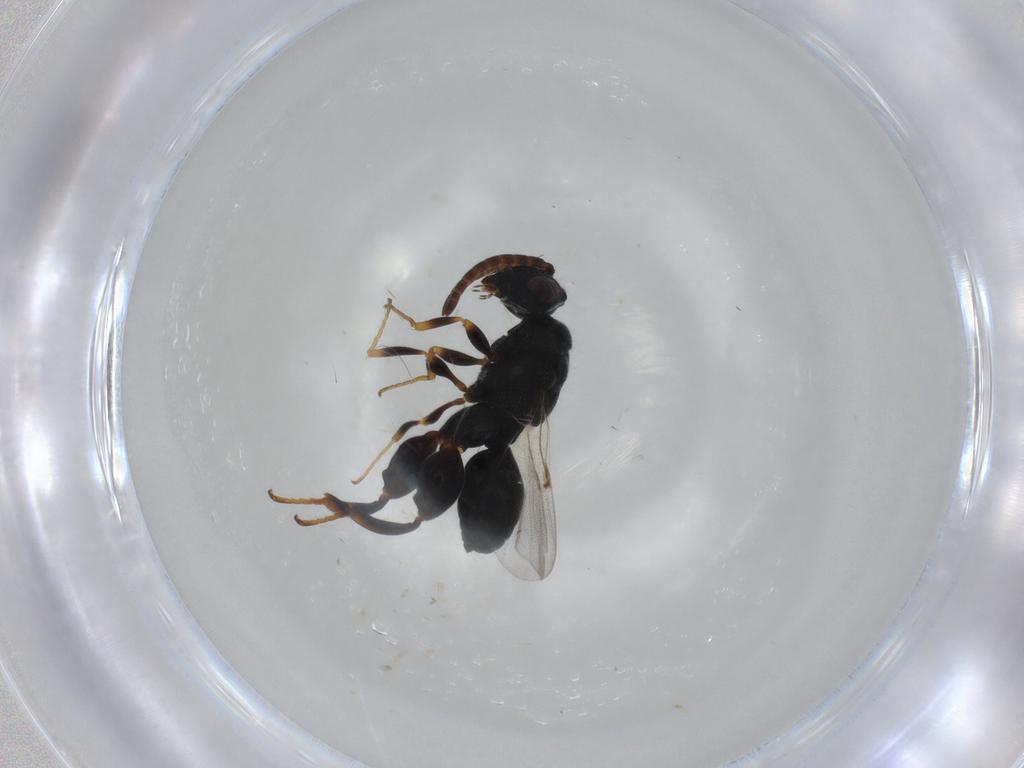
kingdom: Animalia
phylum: Arthropoda
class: Insecta
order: Hymenoptera
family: Chalcididae
